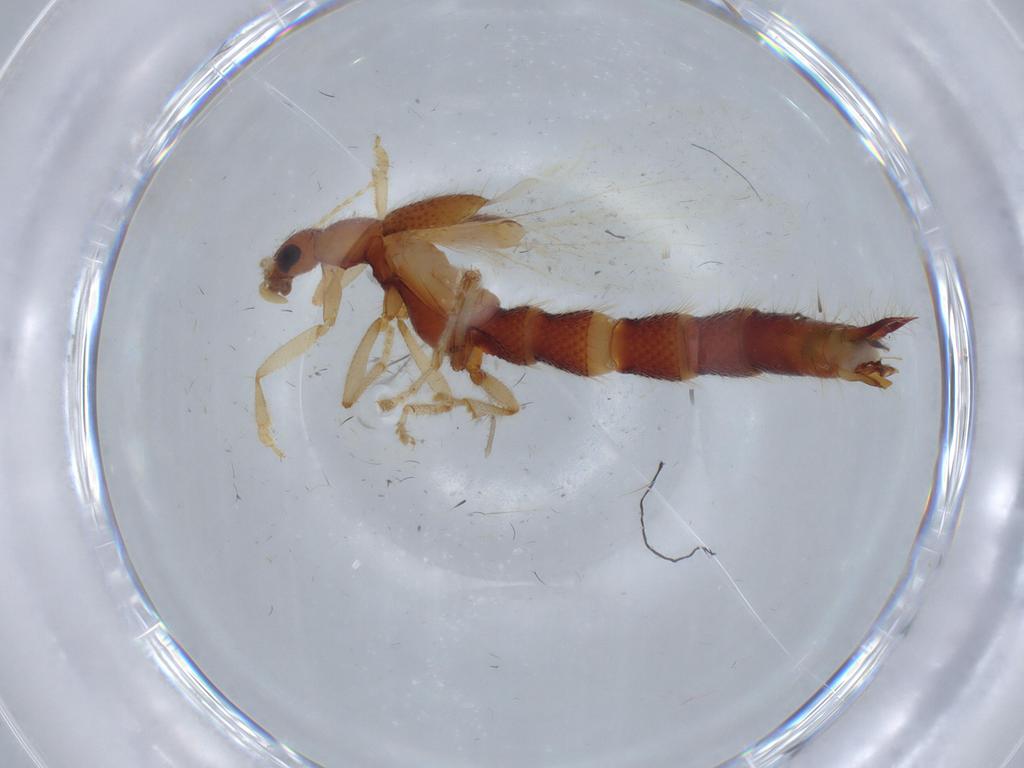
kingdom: Animalia
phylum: Arthropoda
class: Insecta
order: Coleoptera
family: Staphylinidae
